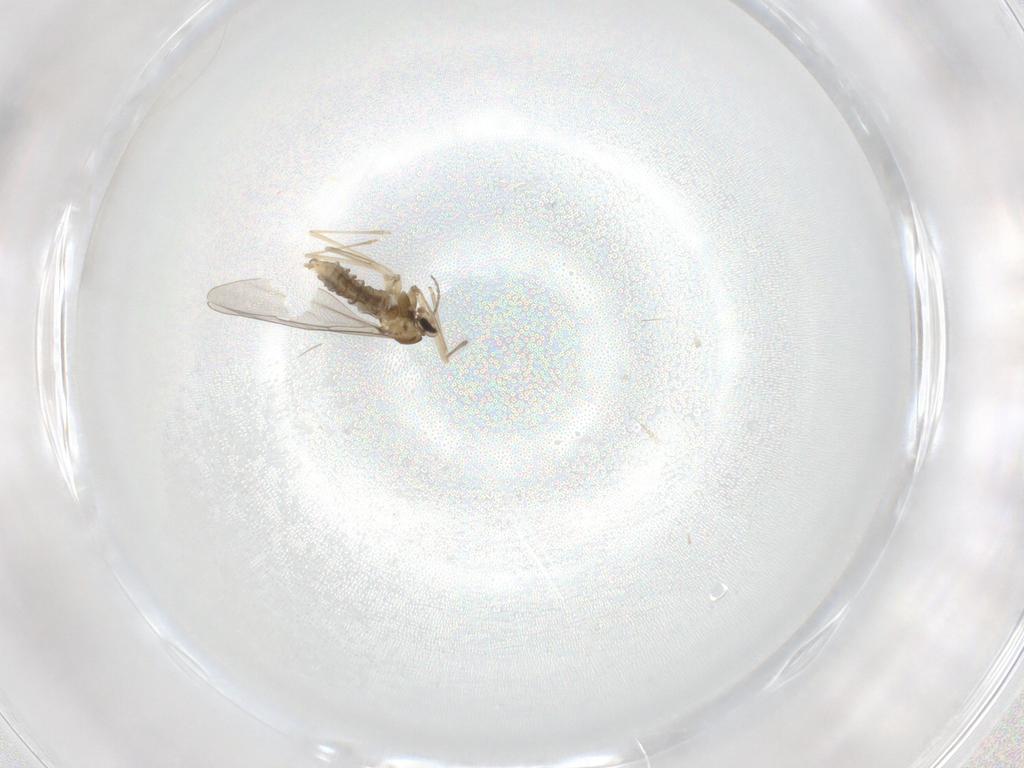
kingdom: Animalia
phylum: Arthropoda
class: Insecta
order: Diptera
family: Cecidomyiidae
